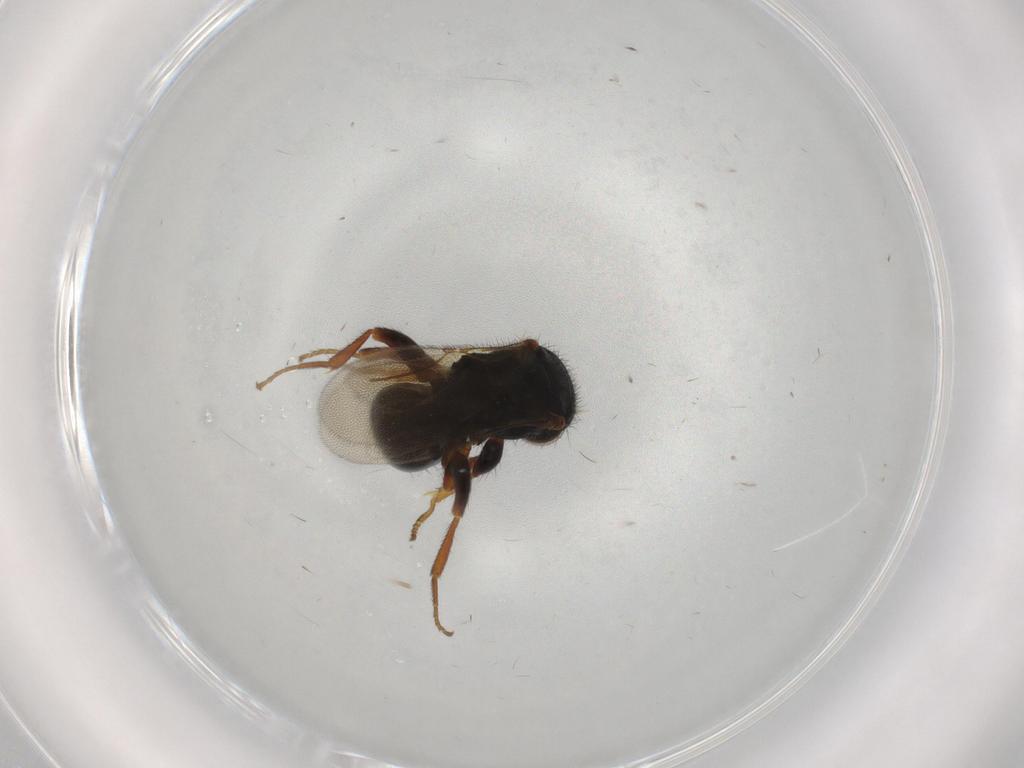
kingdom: Animalia
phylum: Arthropoda
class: Insecta
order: Hymenoptera
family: Bethylidae
